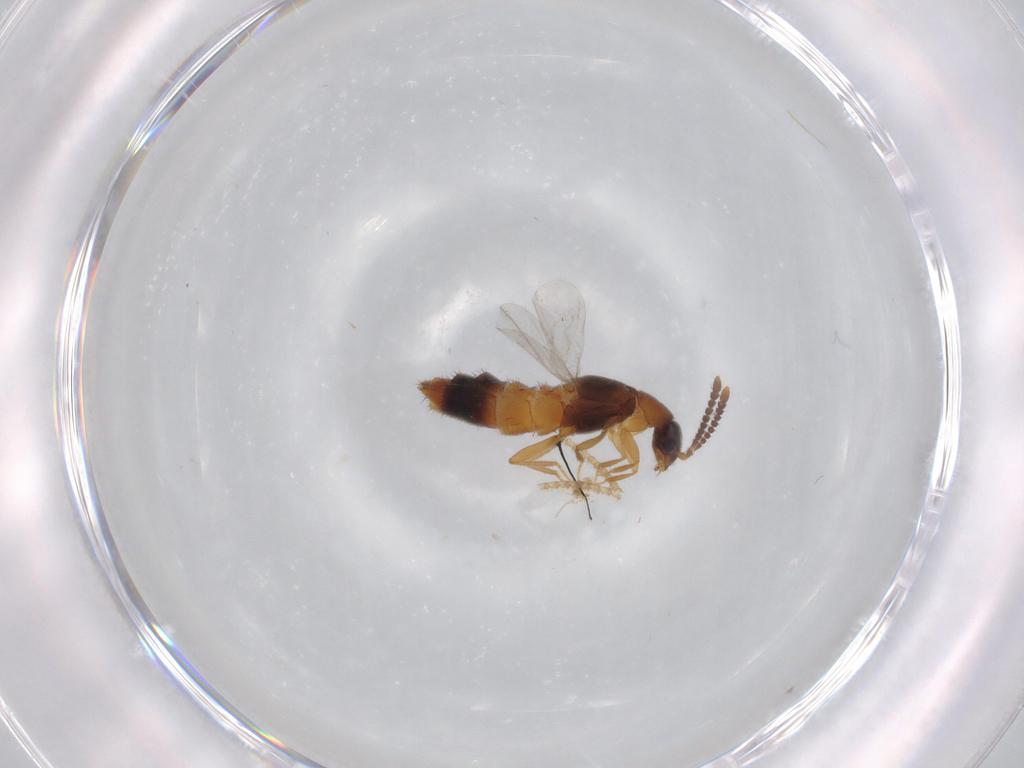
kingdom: Animalia
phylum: Arthropoda
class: Insecta
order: Coleoptera
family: Staphylinidae
